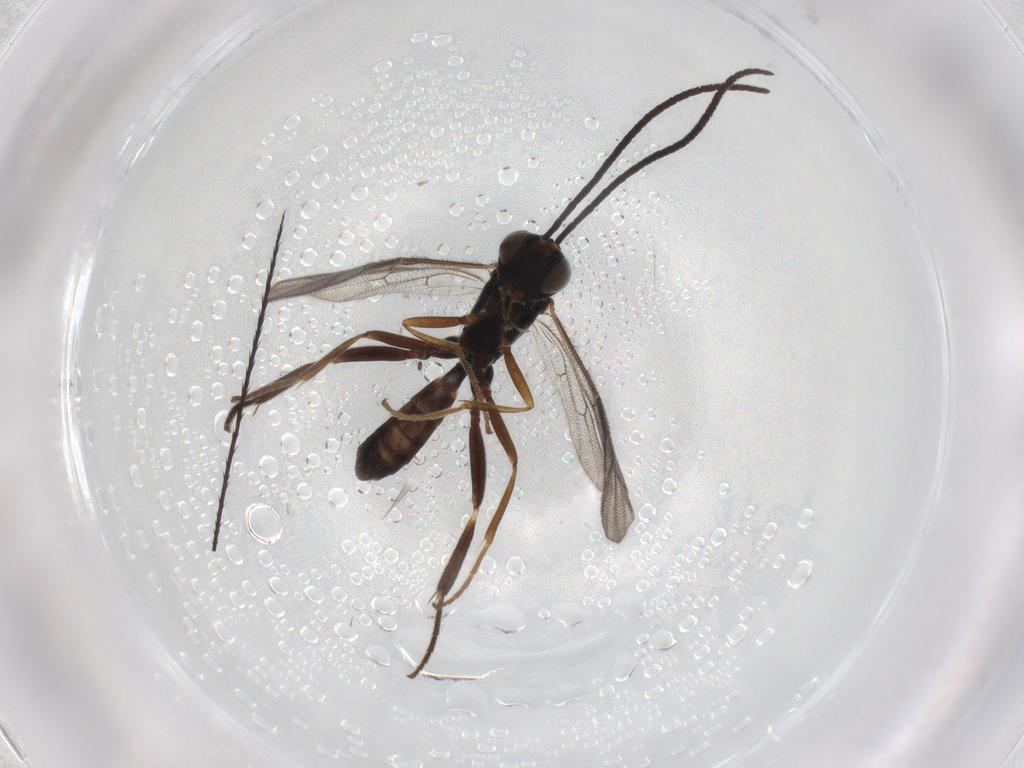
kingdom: Animalia
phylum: Arthropoda
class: Insecta
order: Hymenoptera
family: Ichneumonidae
